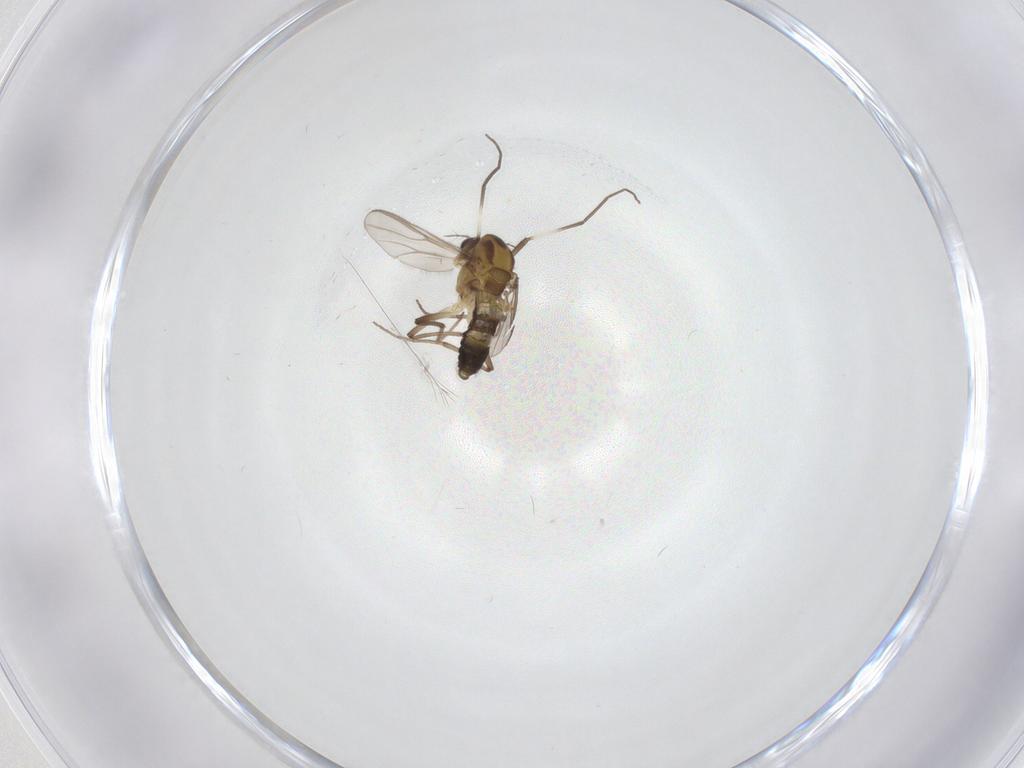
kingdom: Animalia
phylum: Arthropoda
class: Insecta
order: Diptera
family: Chironomidae
